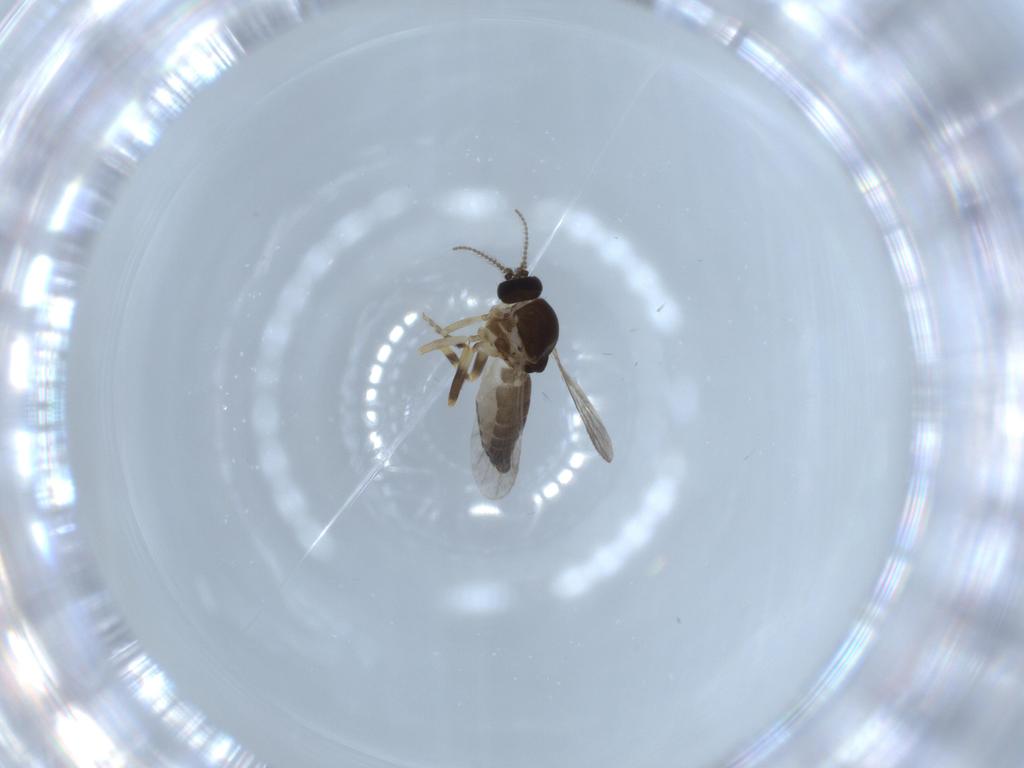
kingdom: Animalia
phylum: Arthropoda
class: Insecta
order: Diptera
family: Ceratopogonidae
